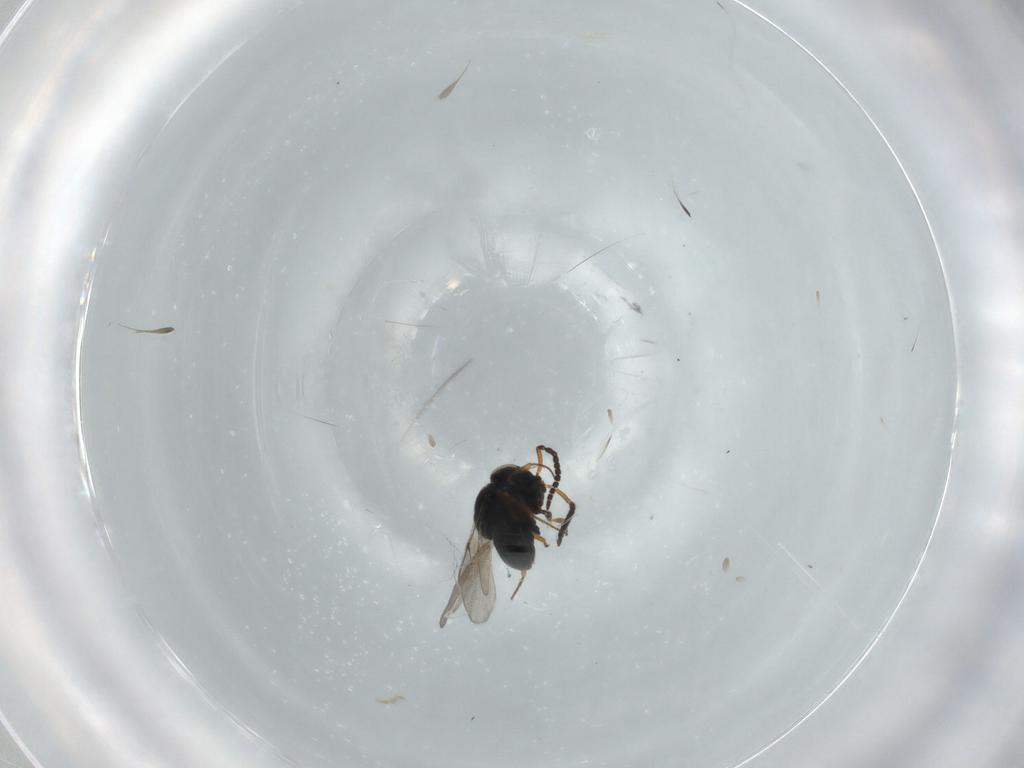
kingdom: Animalia
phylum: Arthropoda
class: Insecta
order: Hymenoptera
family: Scelionidae
